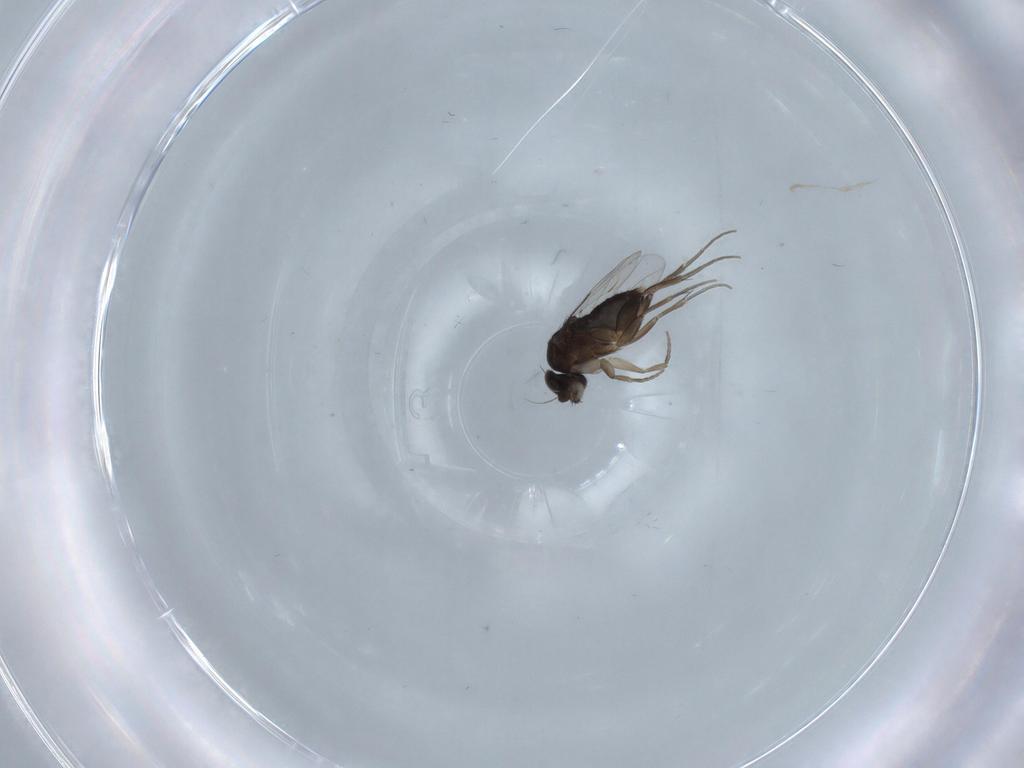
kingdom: Animalia
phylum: Arthropoda
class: Insecta
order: Diptera
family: Phoridae
